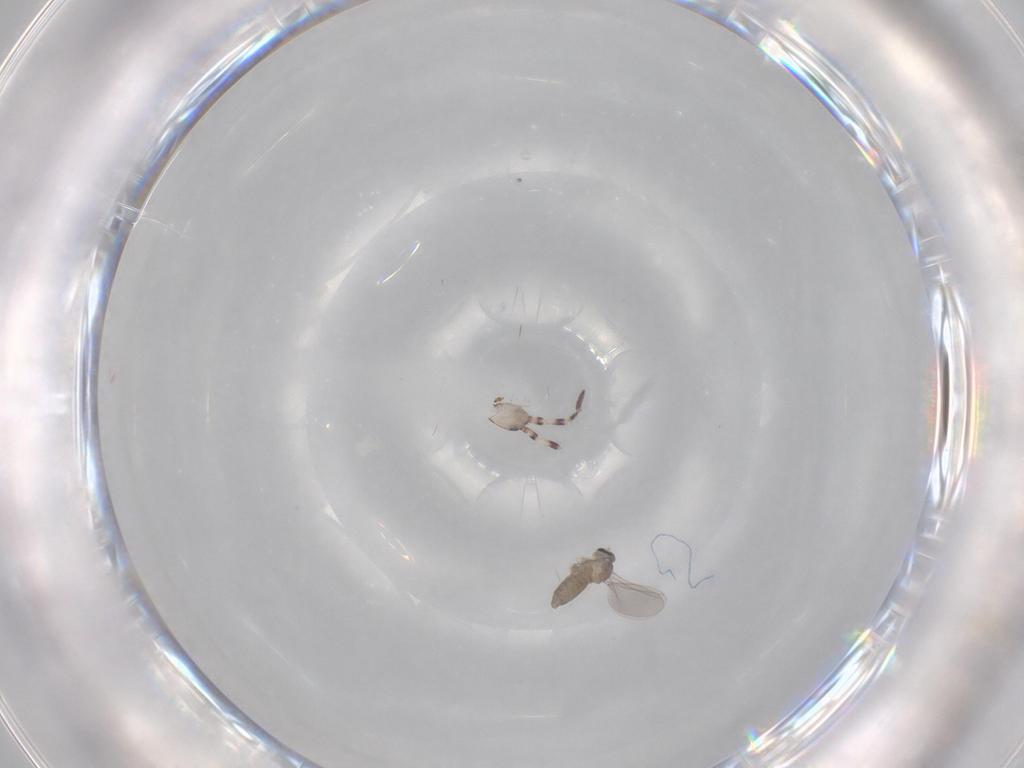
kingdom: Animalia
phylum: Arthropoda
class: Insecta
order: Diptera
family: Cecidomyiidae
